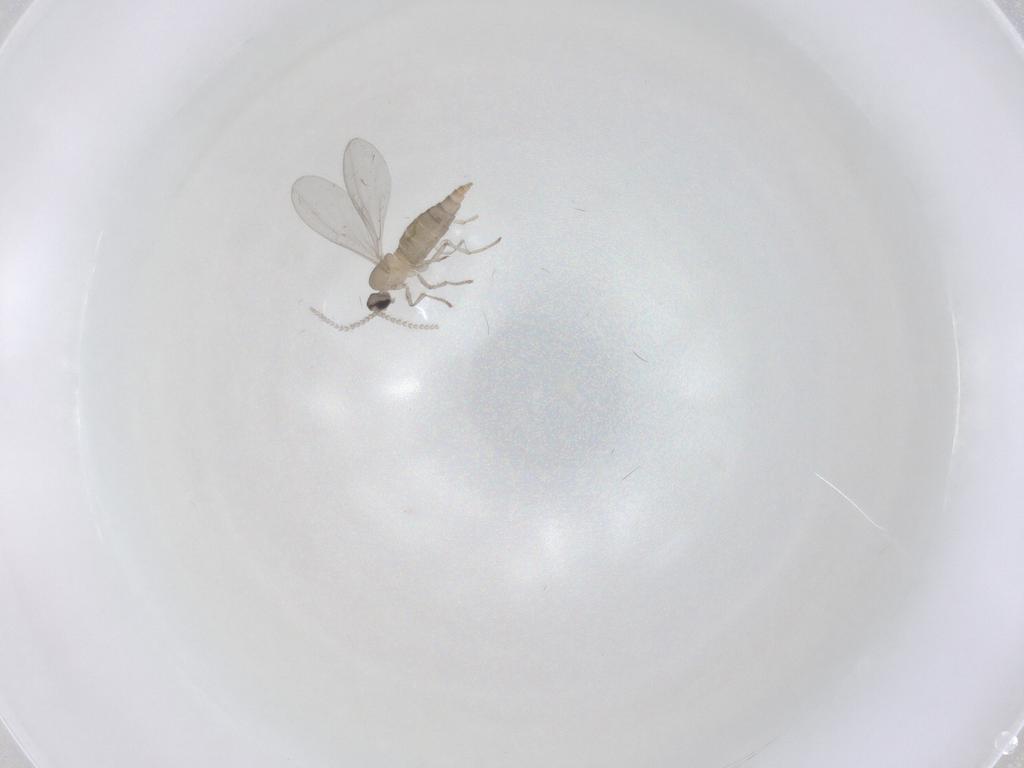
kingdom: Animalia
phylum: Arthropoda
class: Insecta
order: Diptera
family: Cecidomyiidae
